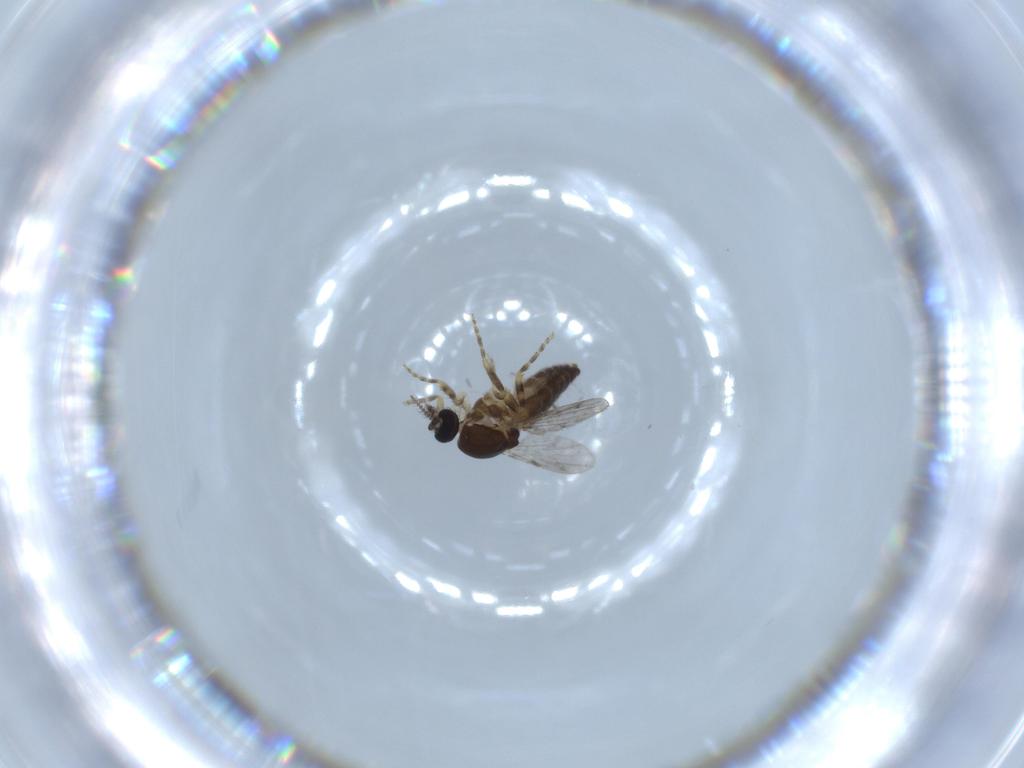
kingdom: Animalia
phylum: Arthropoda
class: Insecta
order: Diptera
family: Ceratopogonidae
